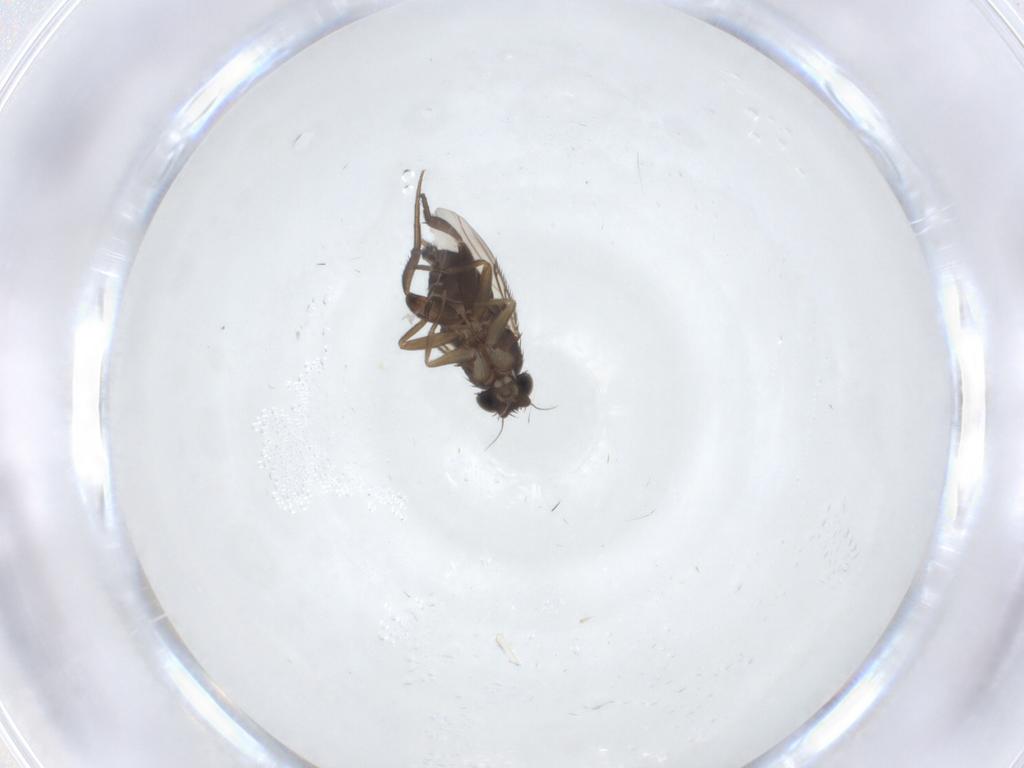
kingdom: Animalia
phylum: Arthropoda
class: Insecta
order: Diptera
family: Phoridae
